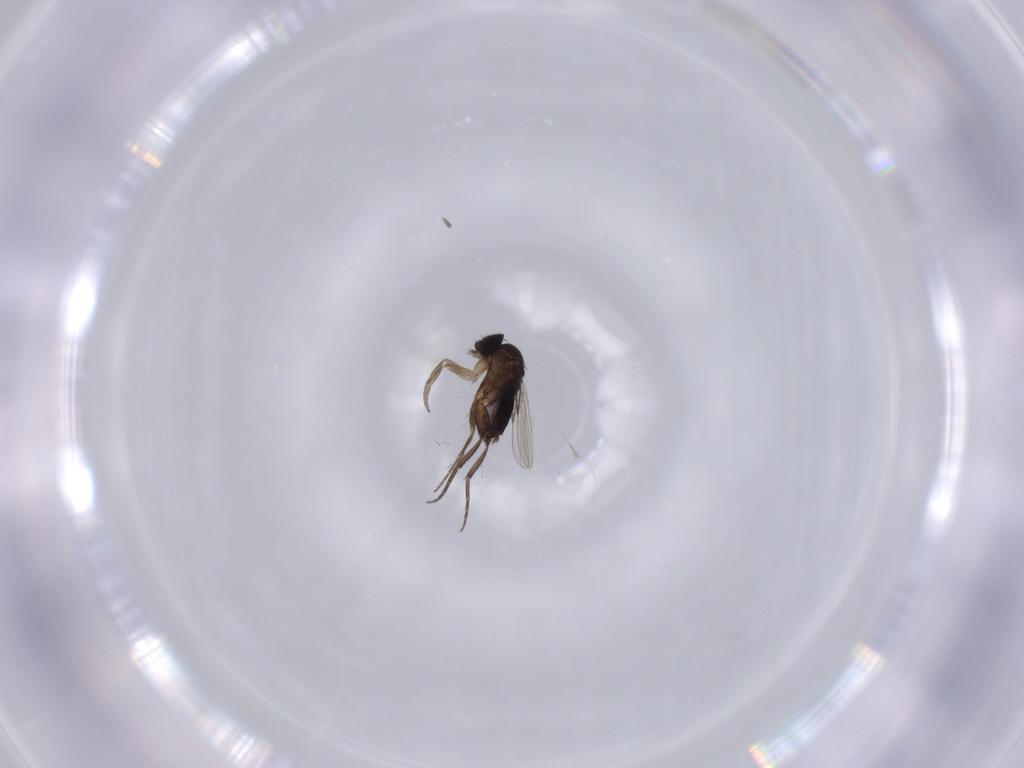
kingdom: Animalia
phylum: Arthropoda
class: Insecta
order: Diptera
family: Phoridae
